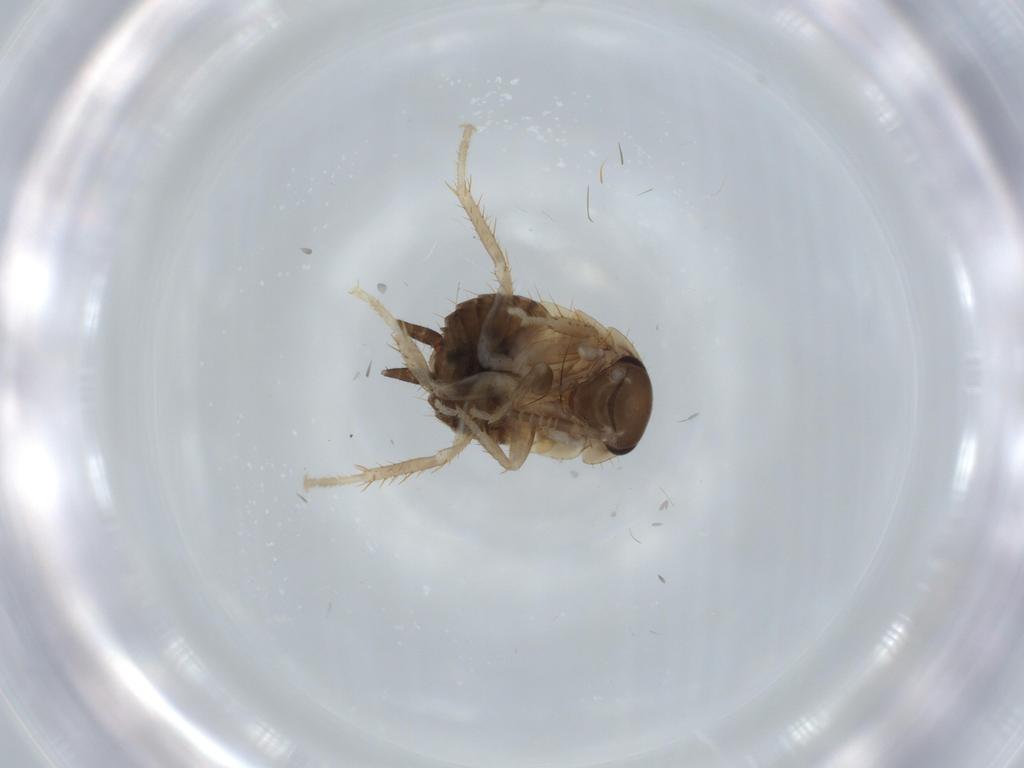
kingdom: Animalia
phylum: Arthropoda
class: Insecta
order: Blattodea
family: Ectobiidae
